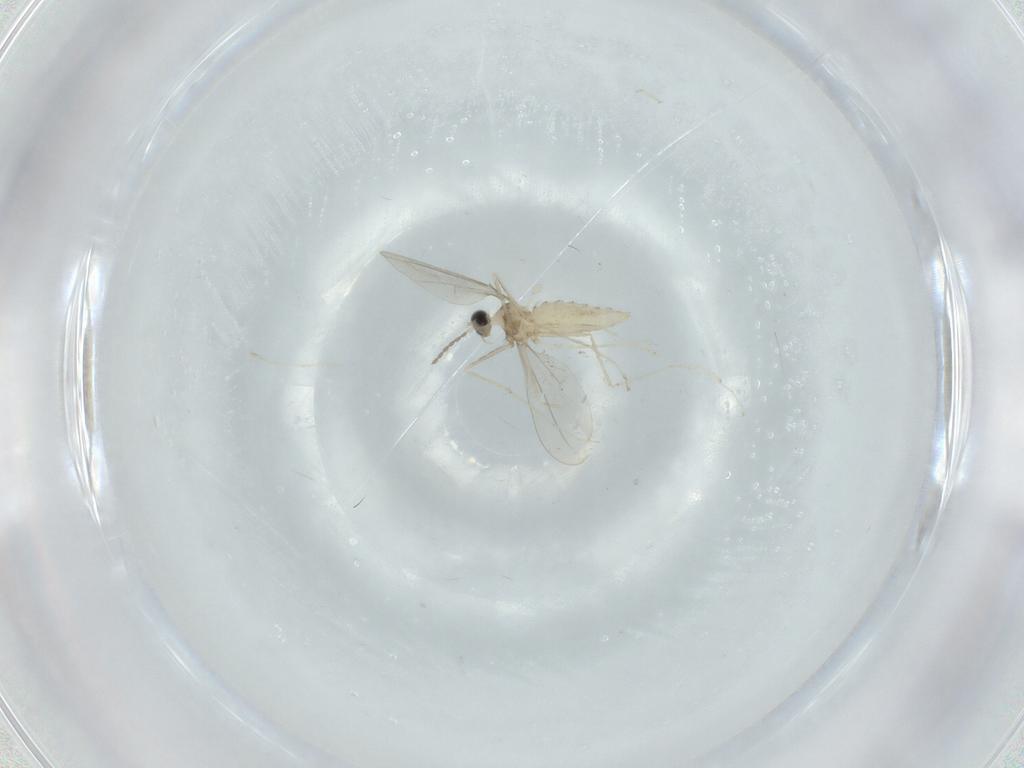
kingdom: Animalia
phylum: Arthropoda
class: Insecta
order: Diptera
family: Cecidomyiidae
